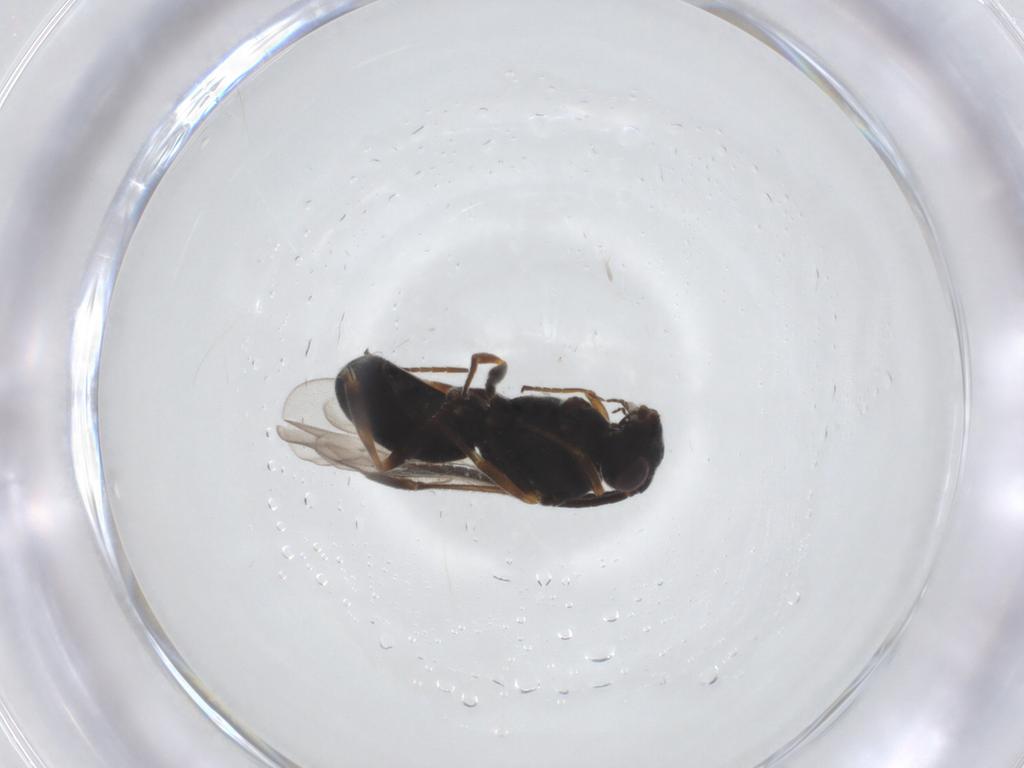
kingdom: Animalia
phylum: Arthropoda
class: Insecta
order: Hymenoptera
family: Braconidae
